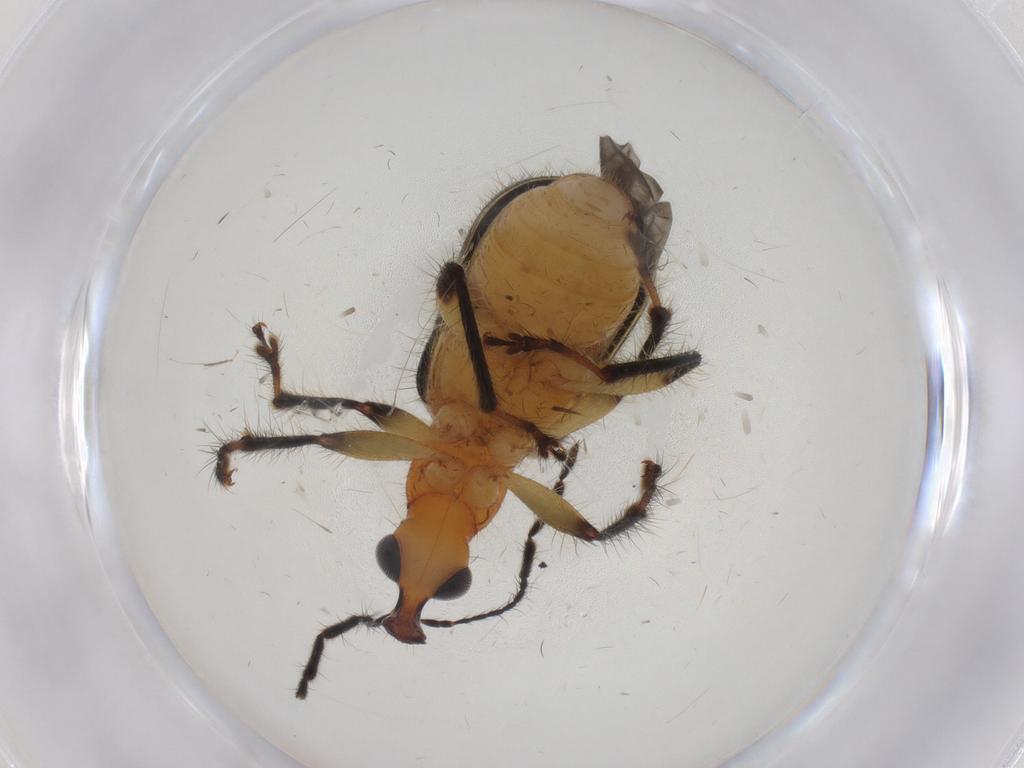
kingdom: Animalia
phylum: Arthropoda
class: Insecta
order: Coleoptera
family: Attelabidae
